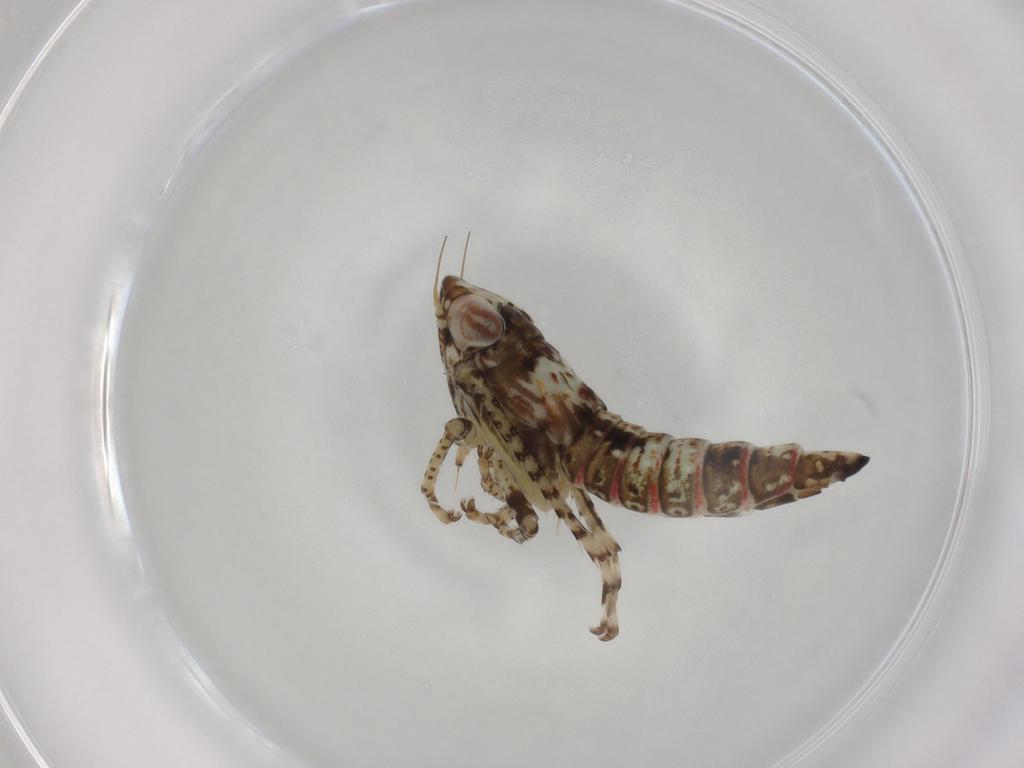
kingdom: Animalia
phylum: Arthropoda
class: Insecta
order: Hemiptera
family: Cicadellidae
